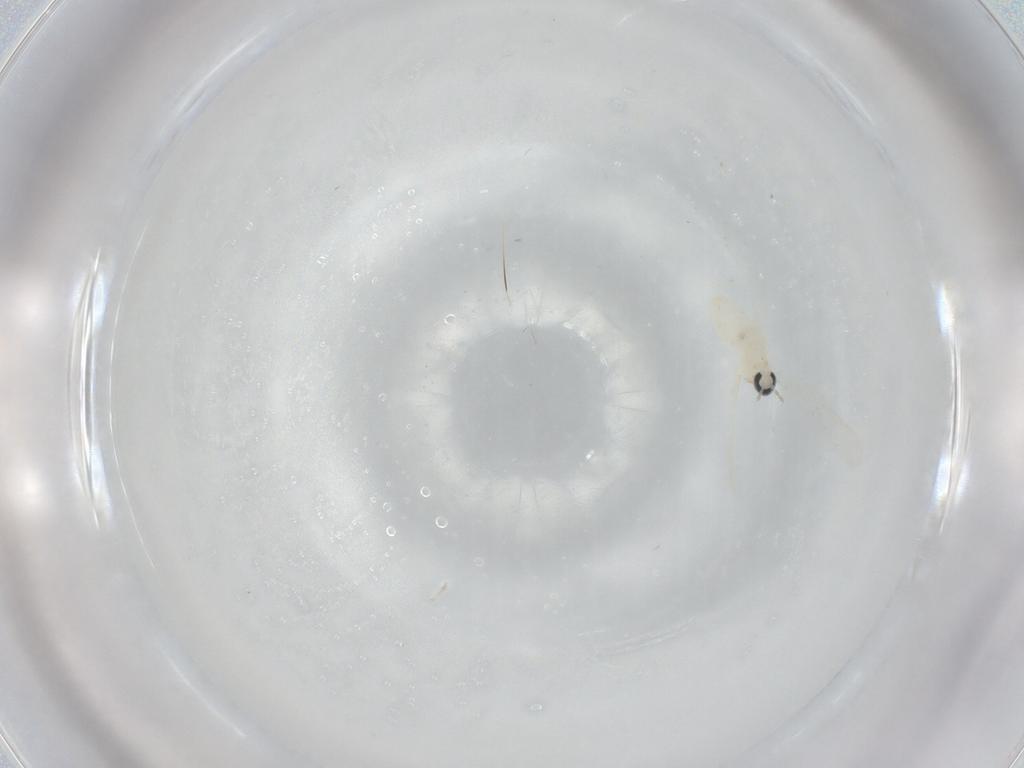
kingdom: Animalia
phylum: Arthropoda
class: Insecta
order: Diptera
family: Cecidomyiidae
